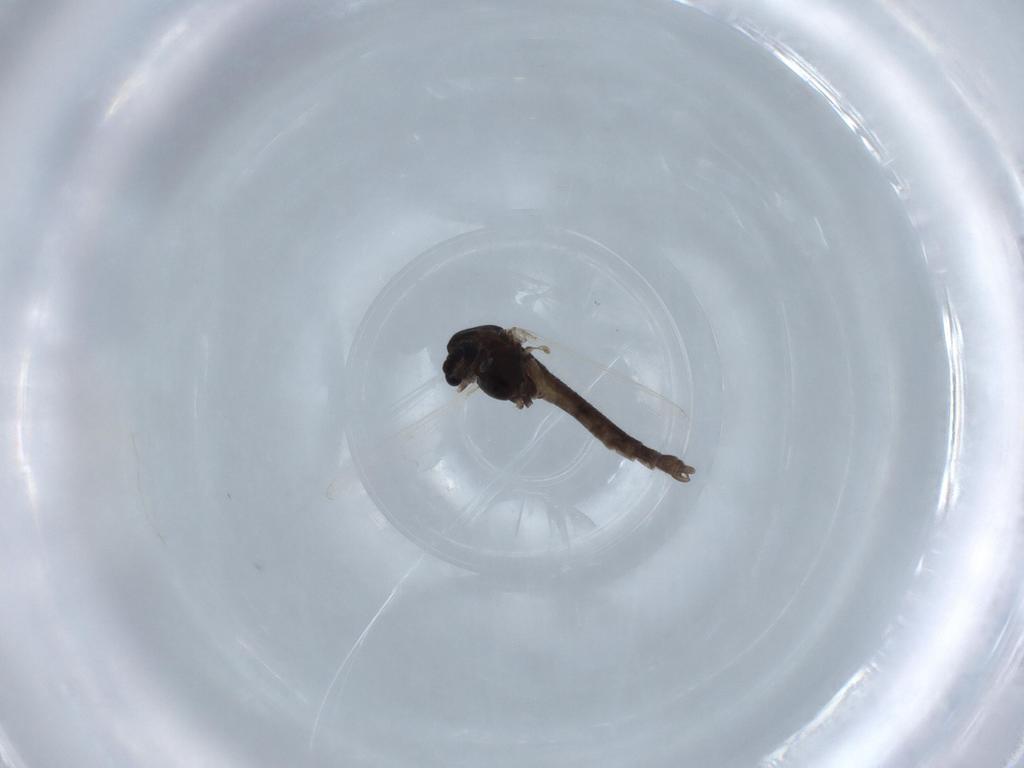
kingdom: Animalia
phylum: Arthropoda
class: Insecta
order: Diptera
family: Chironomidae
